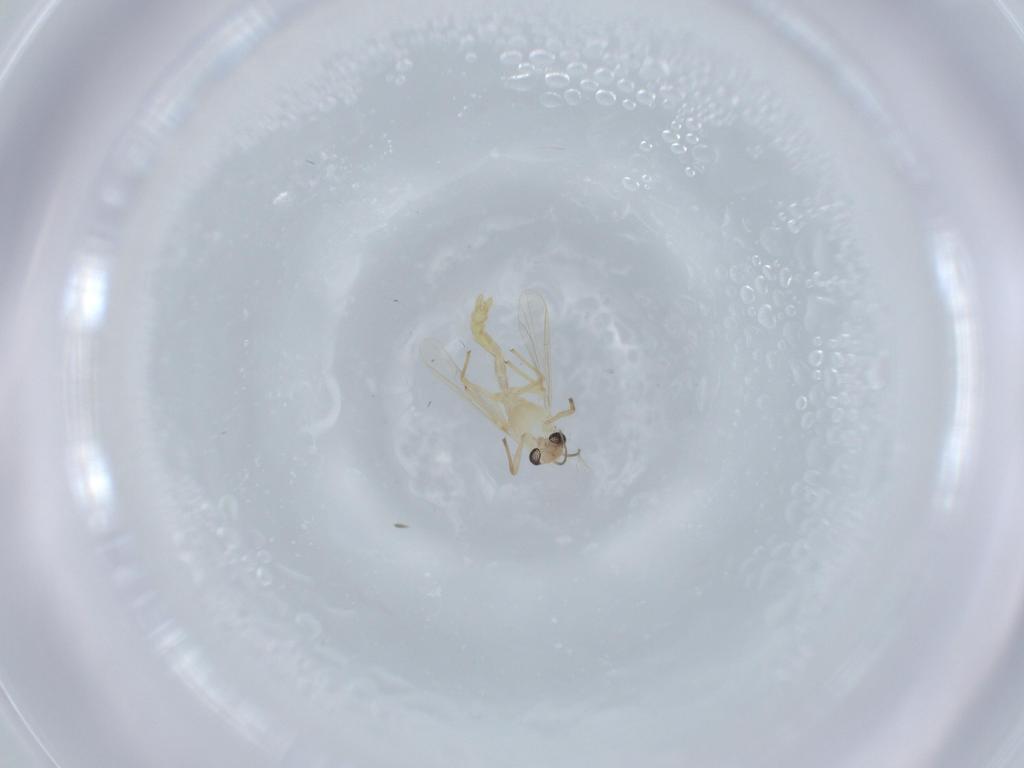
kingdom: Animalia
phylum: Arthropoda
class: Insecta
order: Diptera
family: Chironomidae
